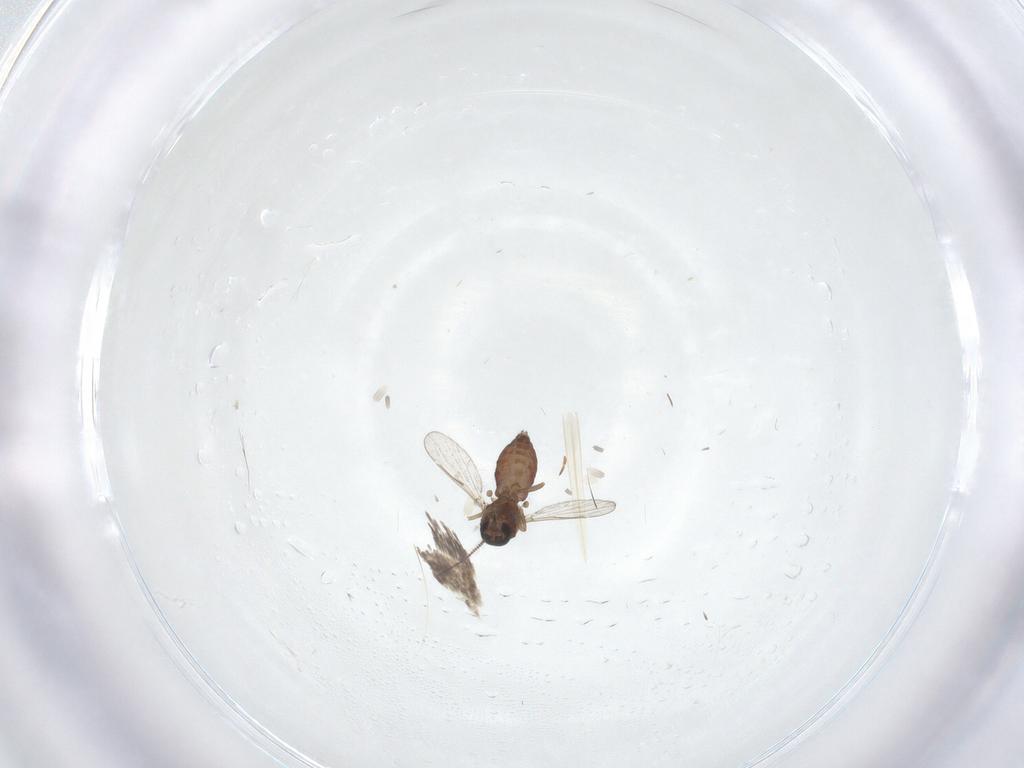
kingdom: Animalia
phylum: Arthropoda
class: Insecta
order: Diptera
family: Ceratopogonidae
